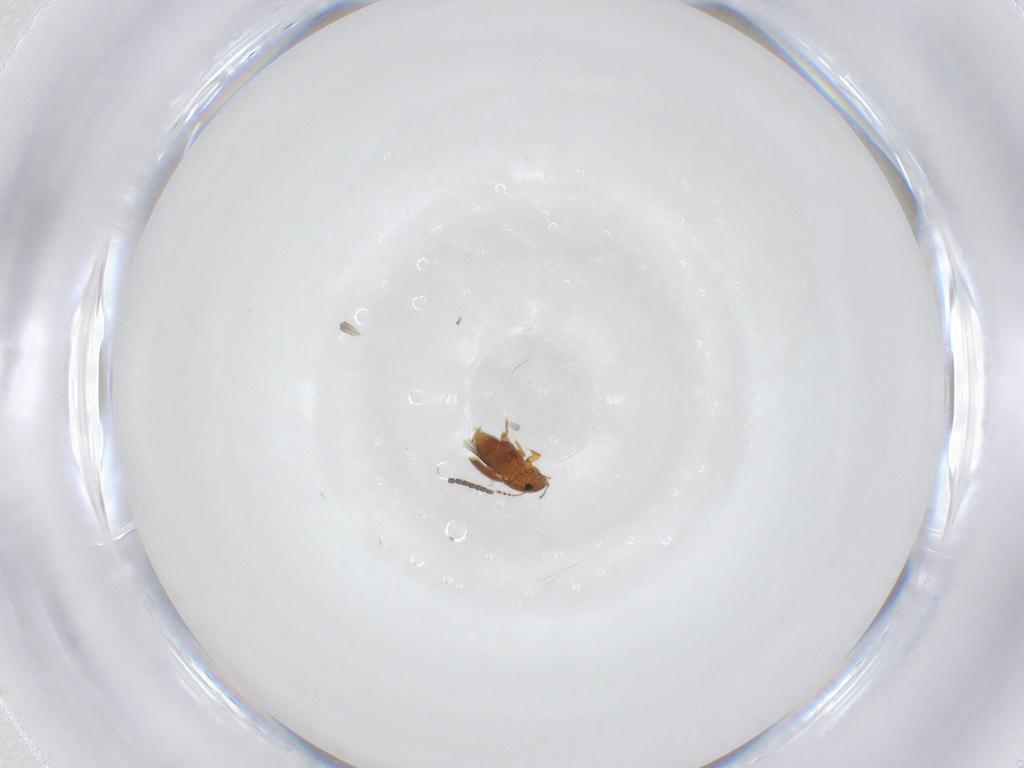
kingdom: Animalia
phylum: Arthropoda
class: Insecta
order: Coleoptera
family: Ptiliidae
